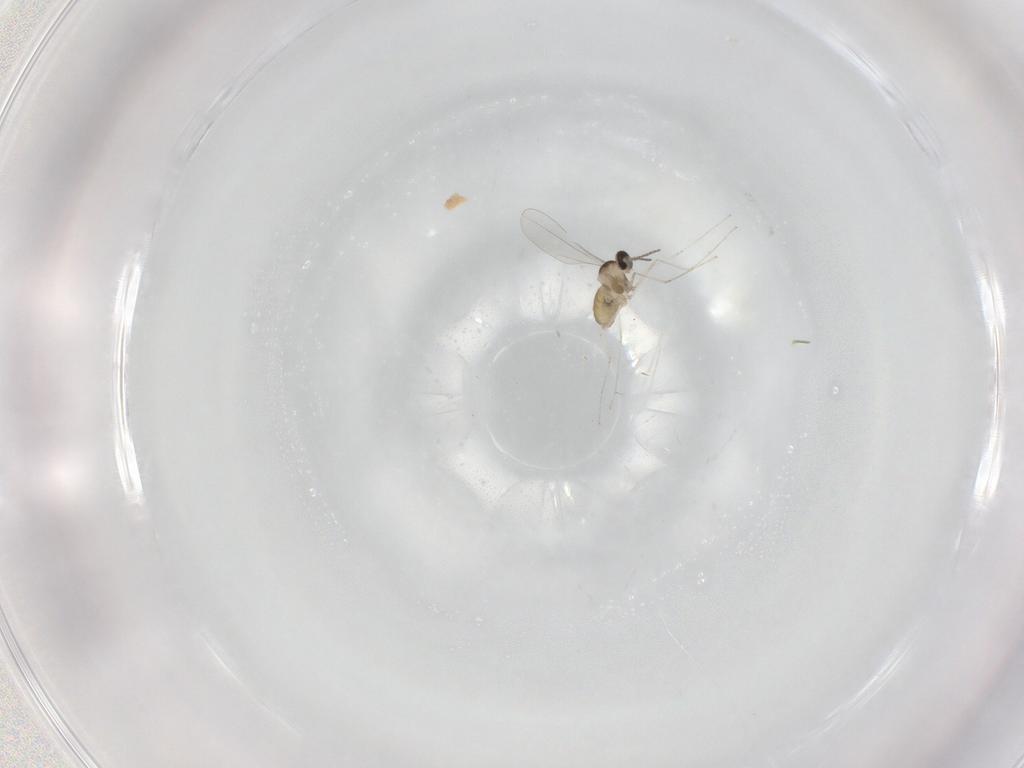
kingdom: Animalia
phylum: Arthropoda
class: Insecta
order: Diptera
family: Cecidomyiidae
